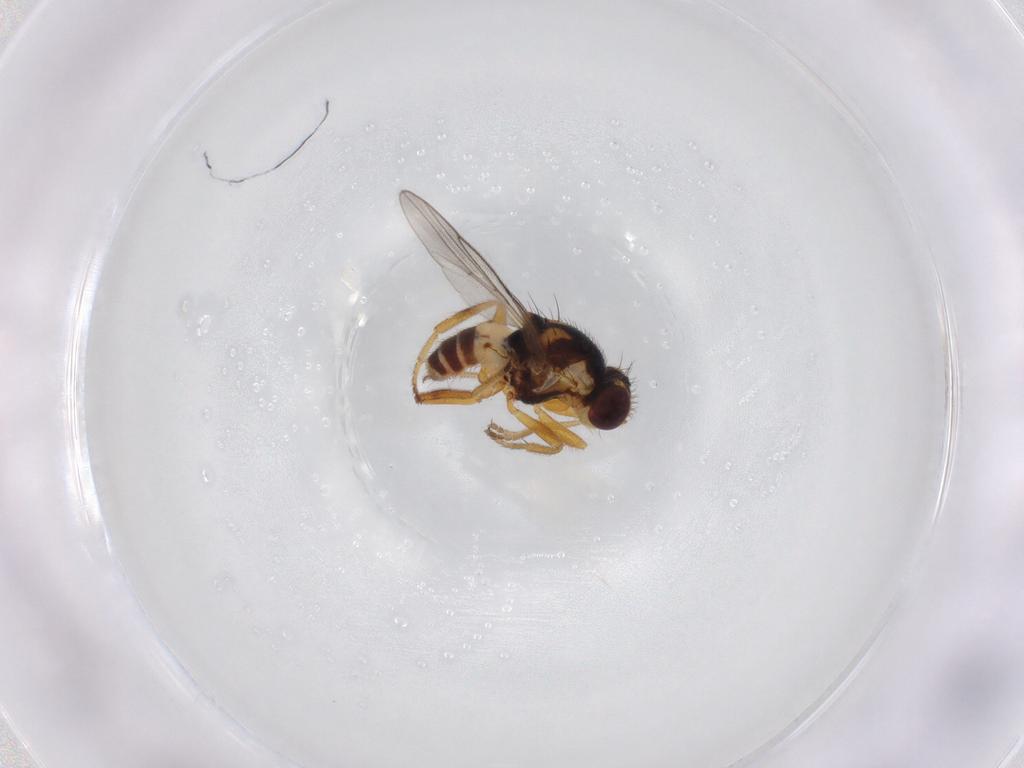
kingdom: Animalia
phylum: Arthropoda
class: Insecta
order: Diptera
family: Chloropidae
